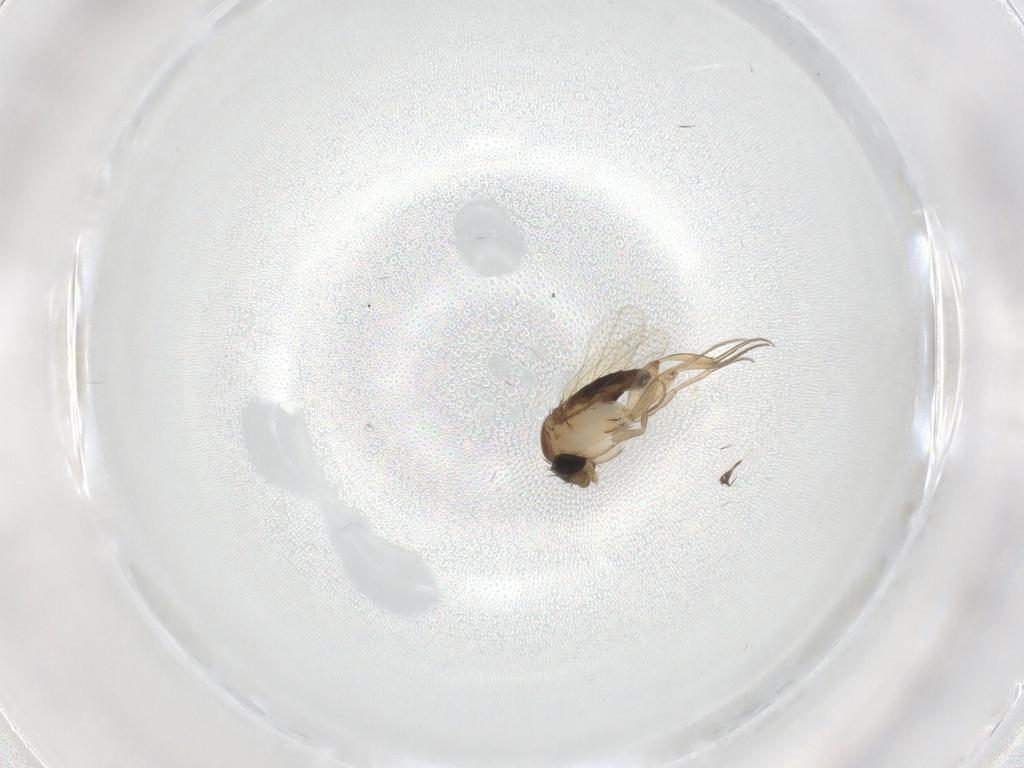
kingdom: Animalia
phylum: Arthropoda
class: Insecta
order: Diptera
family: Phoridae
